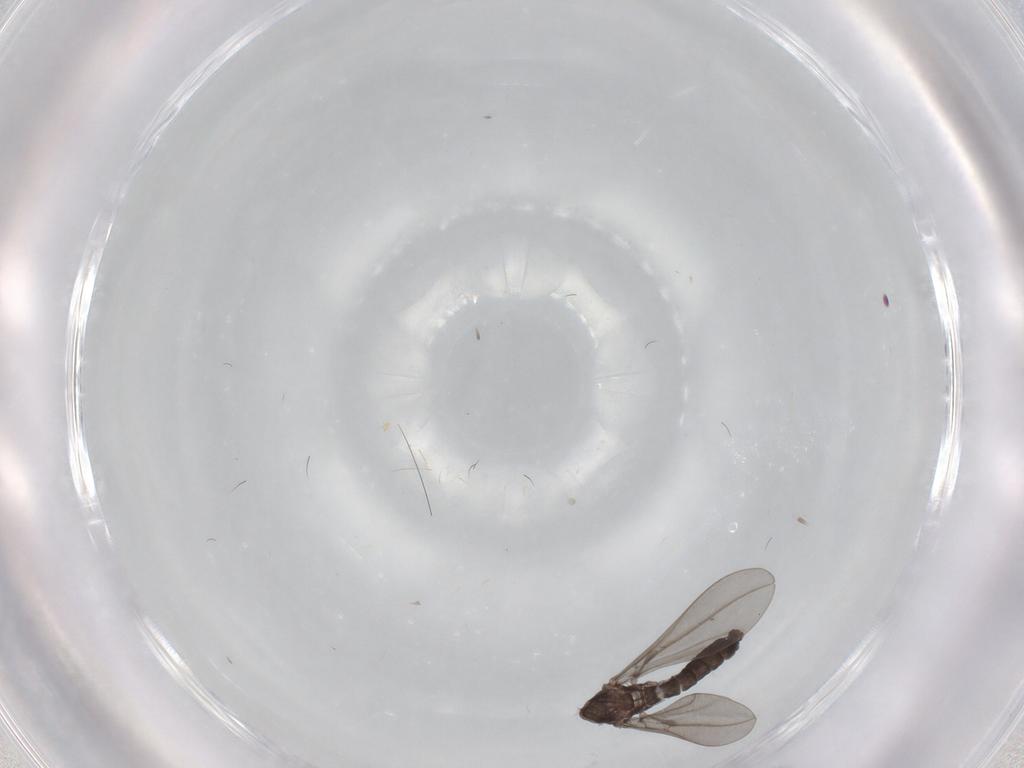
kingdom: Animalia
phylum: Arthropoda
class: Insecta
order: Diptera
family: Cecidomyiidae
